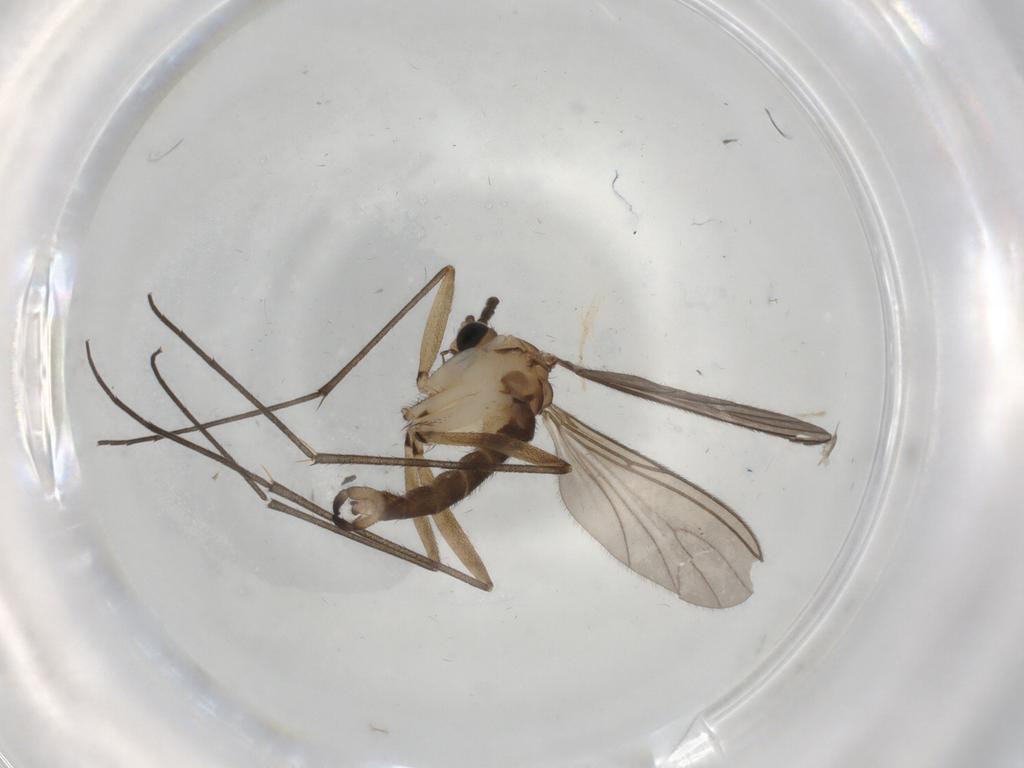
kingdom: Animalia
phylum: Arthropoda
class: Insecta
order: Diptera
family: Sciaridae
